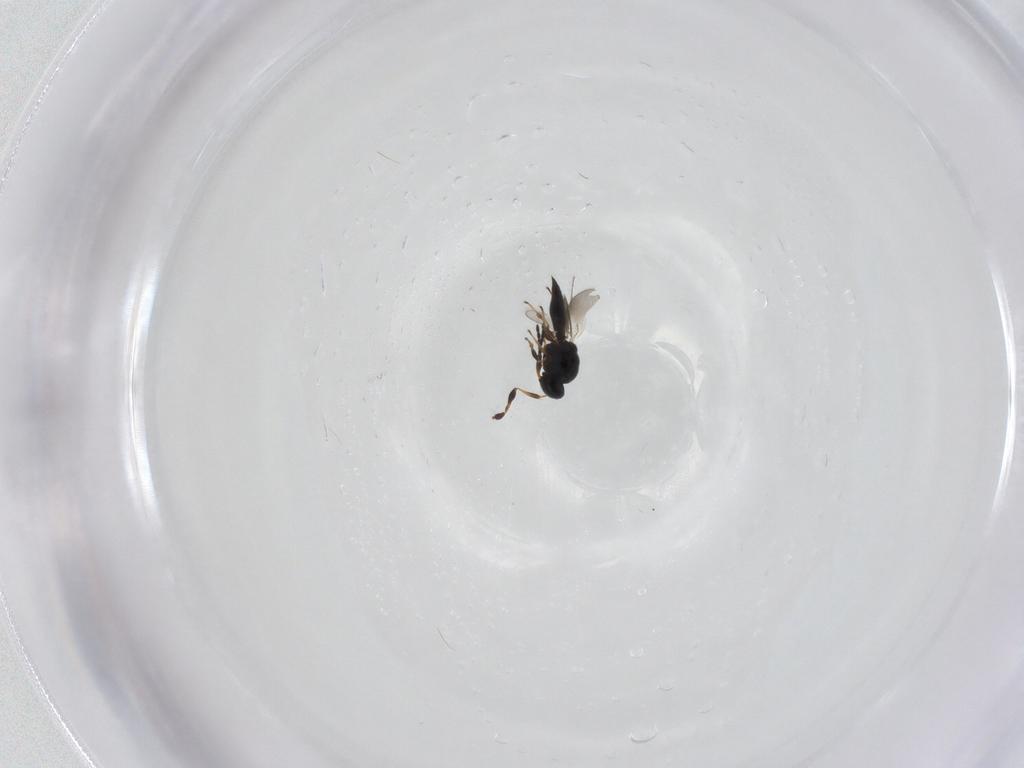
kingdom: Animalia
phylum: Arthropoda
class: Insecta
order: Hymenoptera
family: Platygastridae
